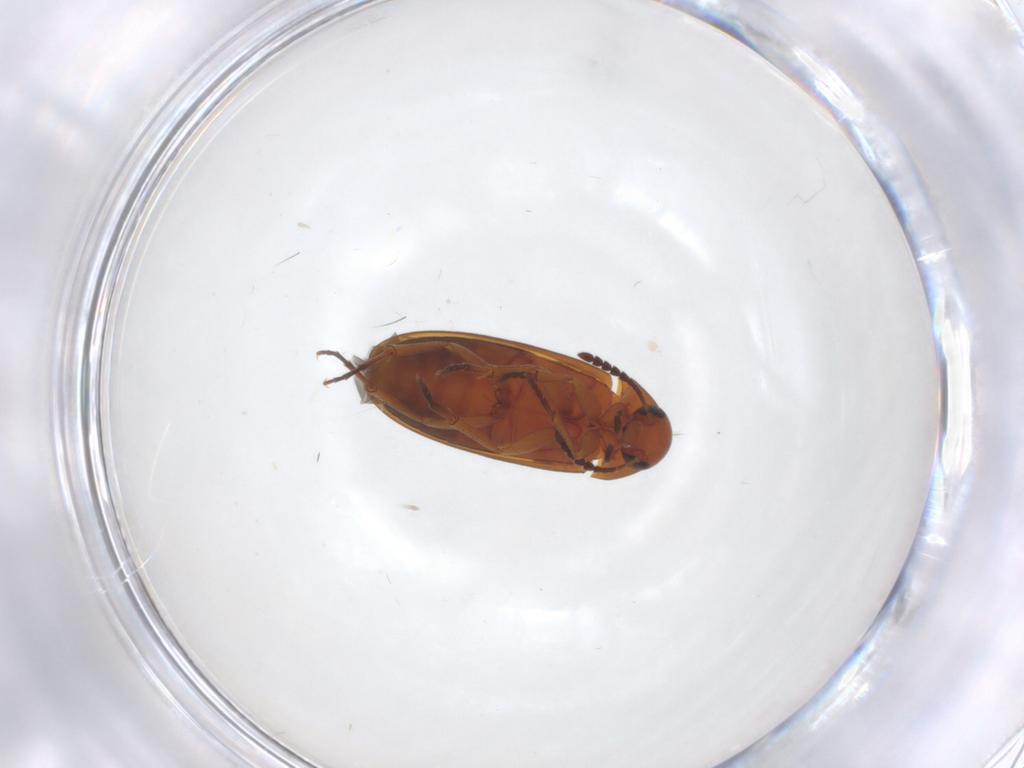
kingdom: Animalia
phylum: Arthropoda
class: Insecta
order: Coleoptera
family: Scraptiidae
